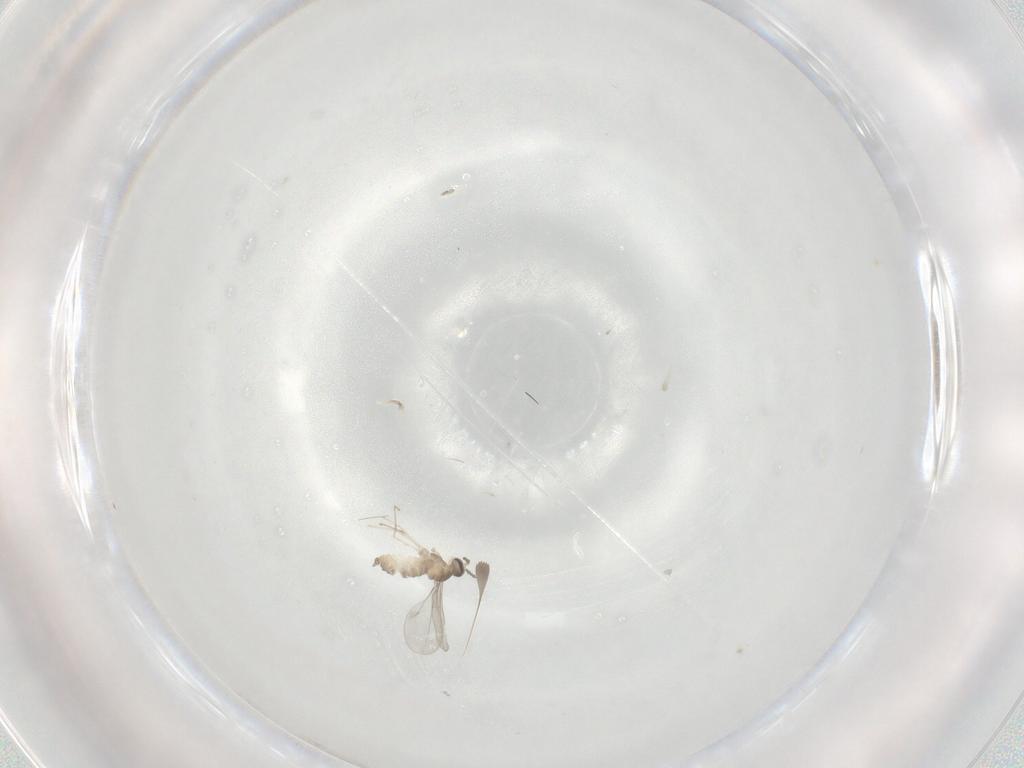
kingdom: Animalia
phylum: Arthropoda
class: Insecta
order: Diptera
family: Cecidomyiidae
